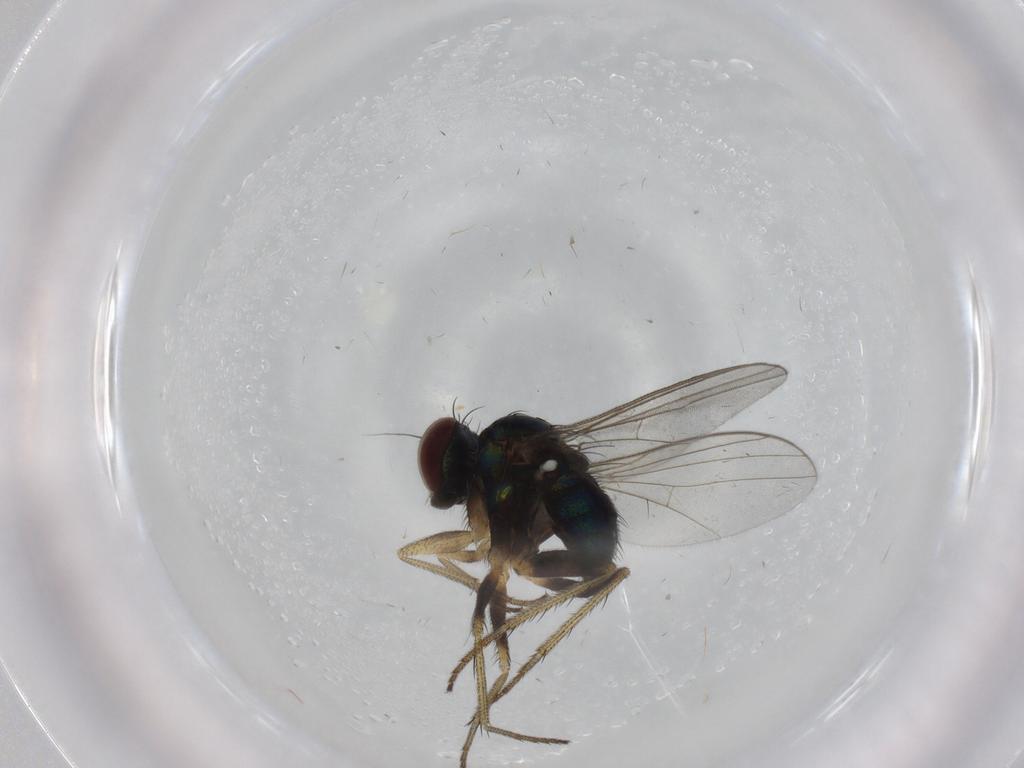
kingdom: Animalia
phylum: Arthropoda
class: Insecta
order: Diptera
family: Dolichopodidae
